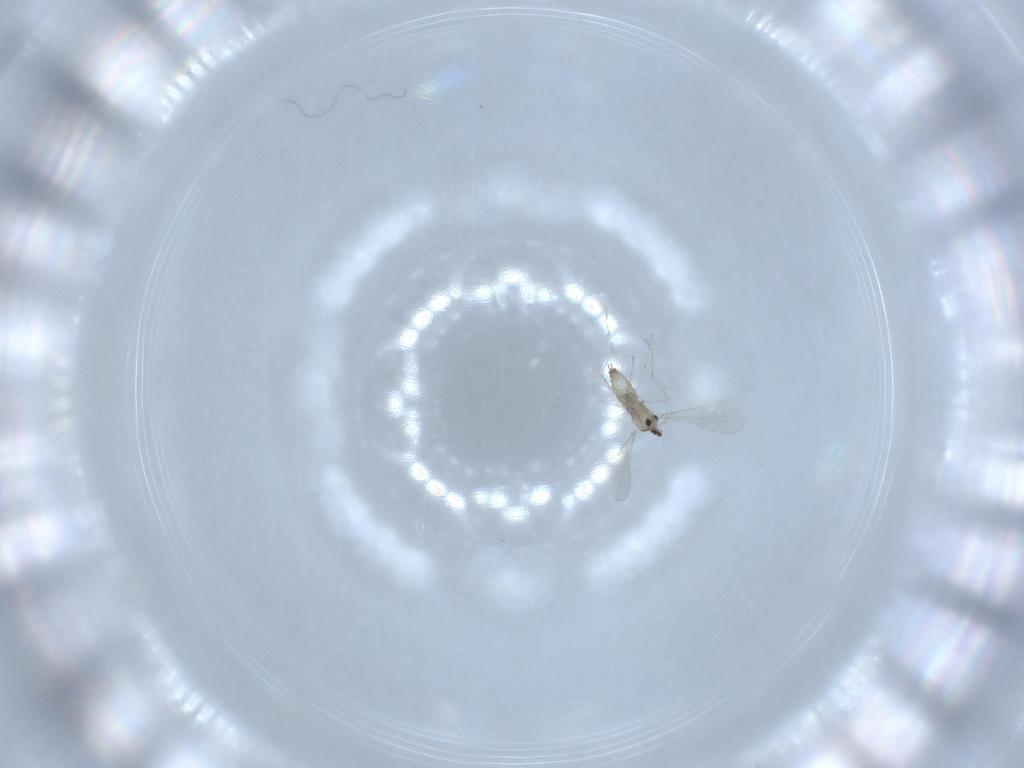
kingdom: Animalia
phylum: Arthropoda
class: Insecta
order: Diptera
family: Cecidomyiidae
